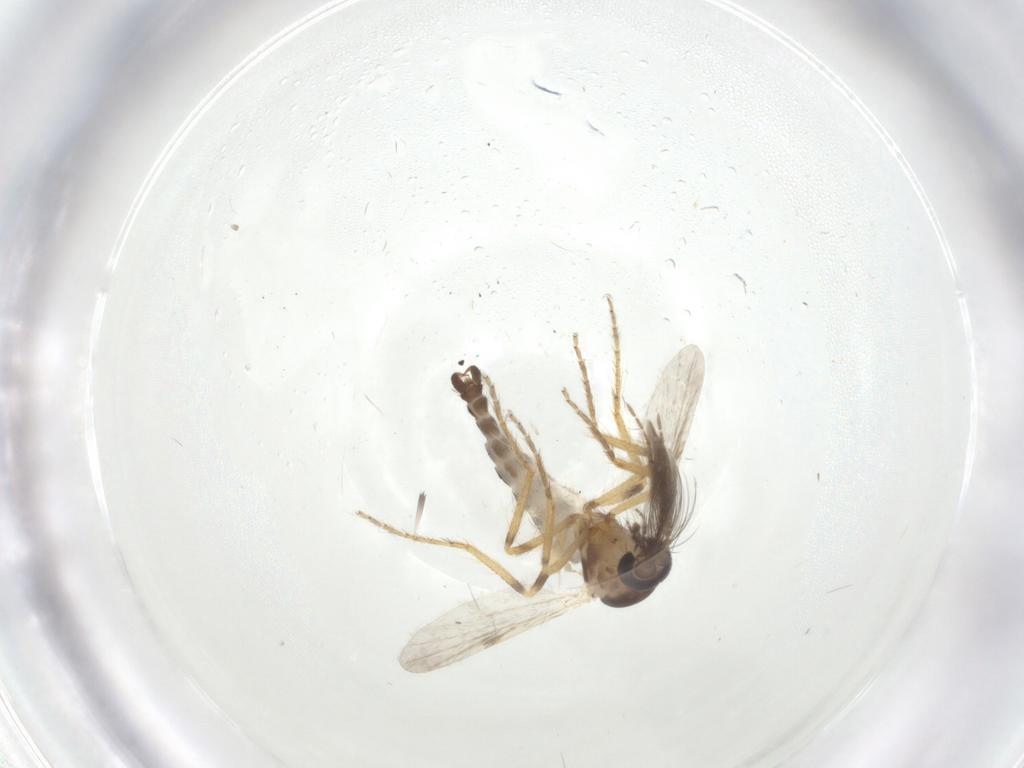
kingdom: Animalia
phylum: Arthropoda
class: Insecta
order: Diptera
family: Ceratopogonidae
